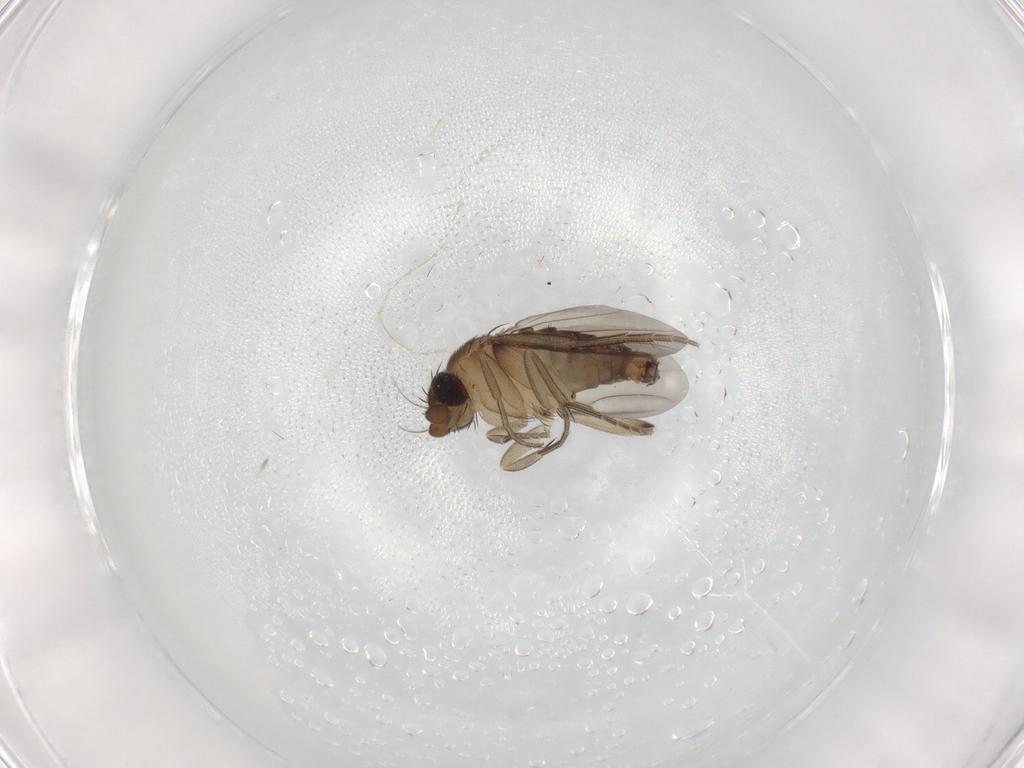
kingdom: Animalia
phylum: Arthropoda
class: Insecta
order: Diptera
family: Phoridae
